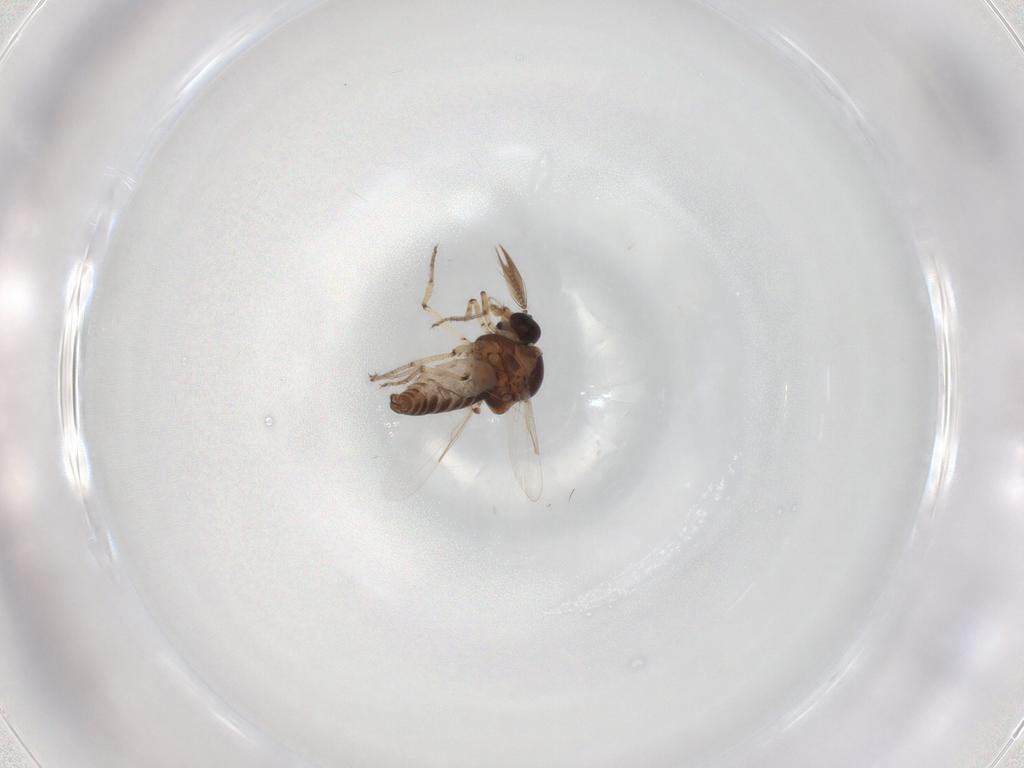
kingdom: Animalia
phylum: Arthropoda
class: Insecta
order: Diptera
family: Ceratopogonidae
